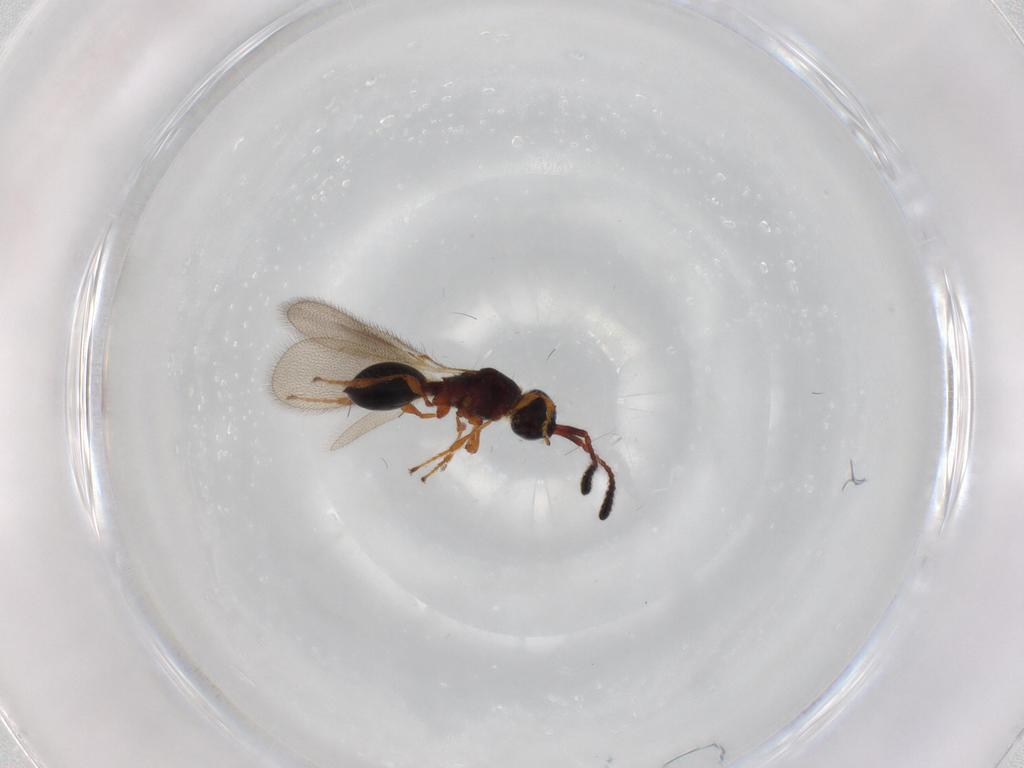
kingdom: Animalia
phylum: Arthropoda
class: Insecta
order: Hymenoptera
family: Diapriidae
